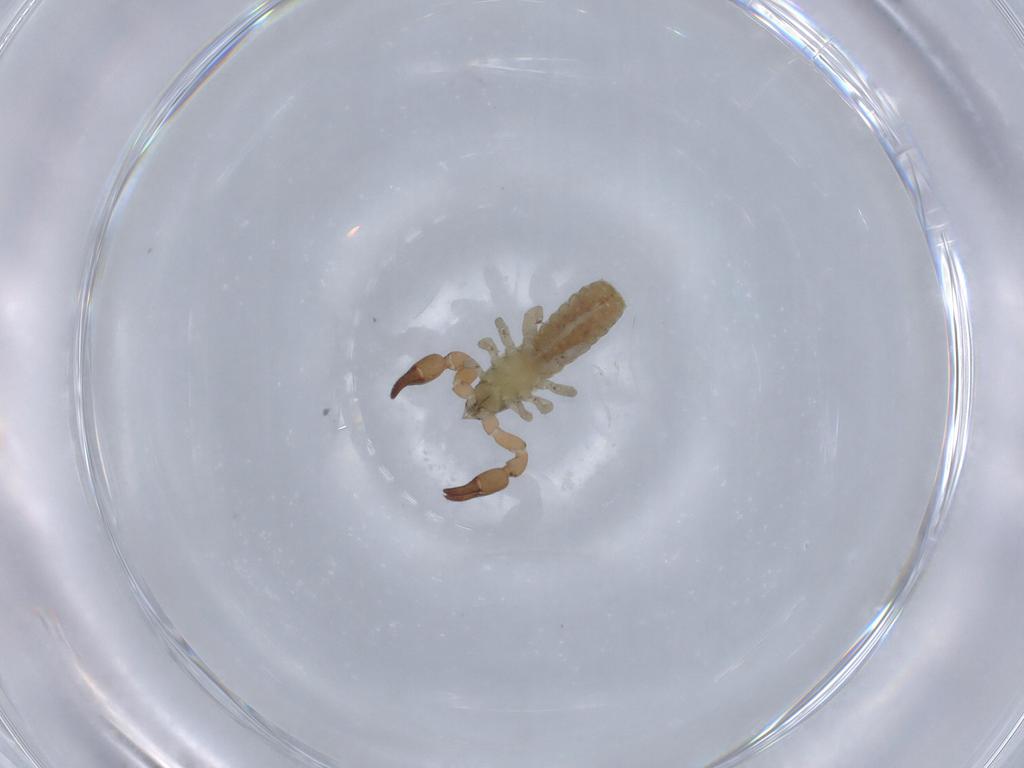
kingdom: Animalia
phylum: Arthropoda
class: Arachnida
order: Pseudoscorpiones
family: Garypinidae
